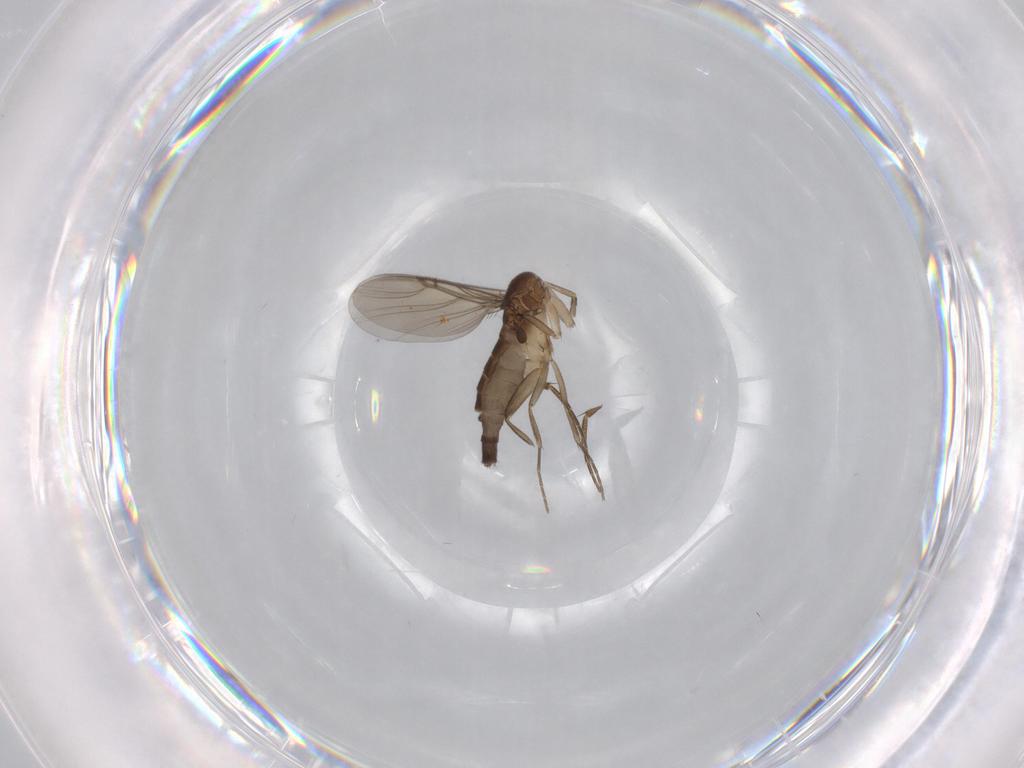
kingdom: Animalia
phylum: Arthropoda
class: Insecta
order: Diptera
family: Phoridae
